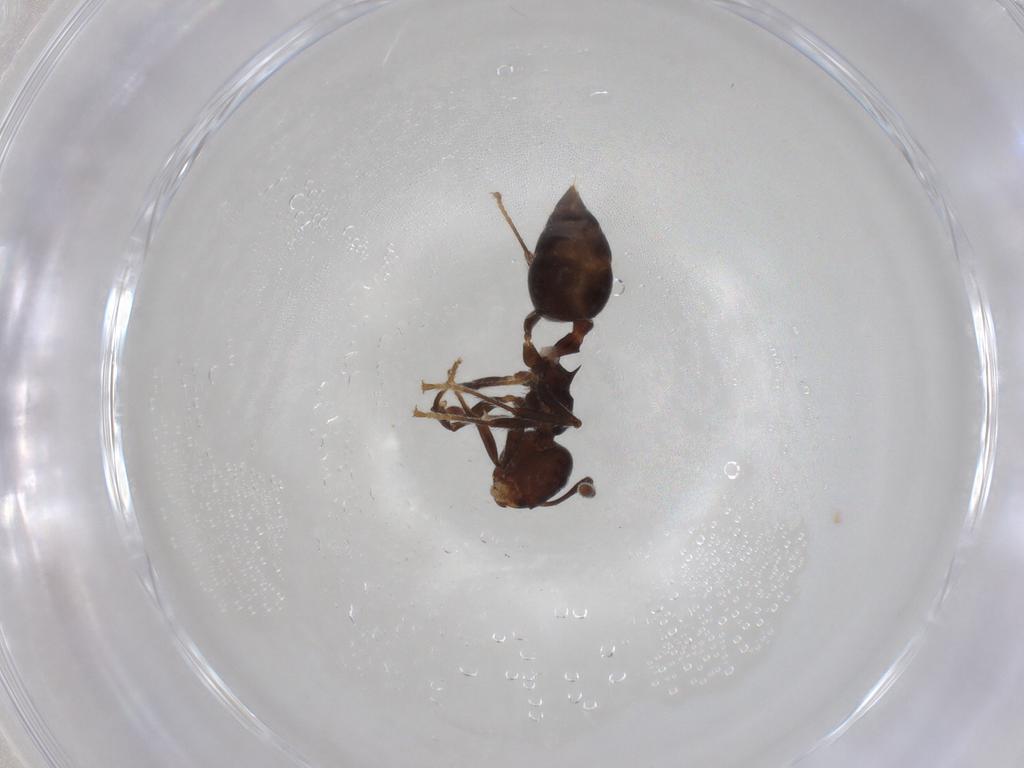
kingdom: Animalia
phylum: Arthropoda
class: Insecta
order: Hymenoptera
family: Formicidae
